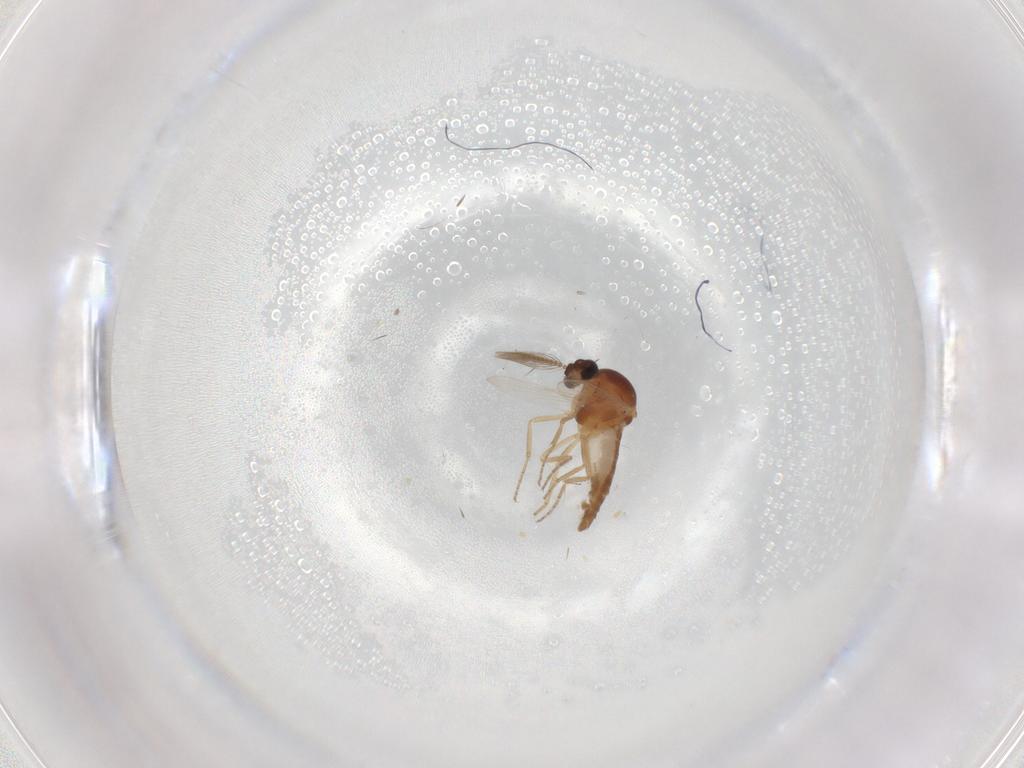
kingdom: Animalia
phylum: Arthropoda
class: Insecta
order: Diptera
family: Ceratopogonidae
